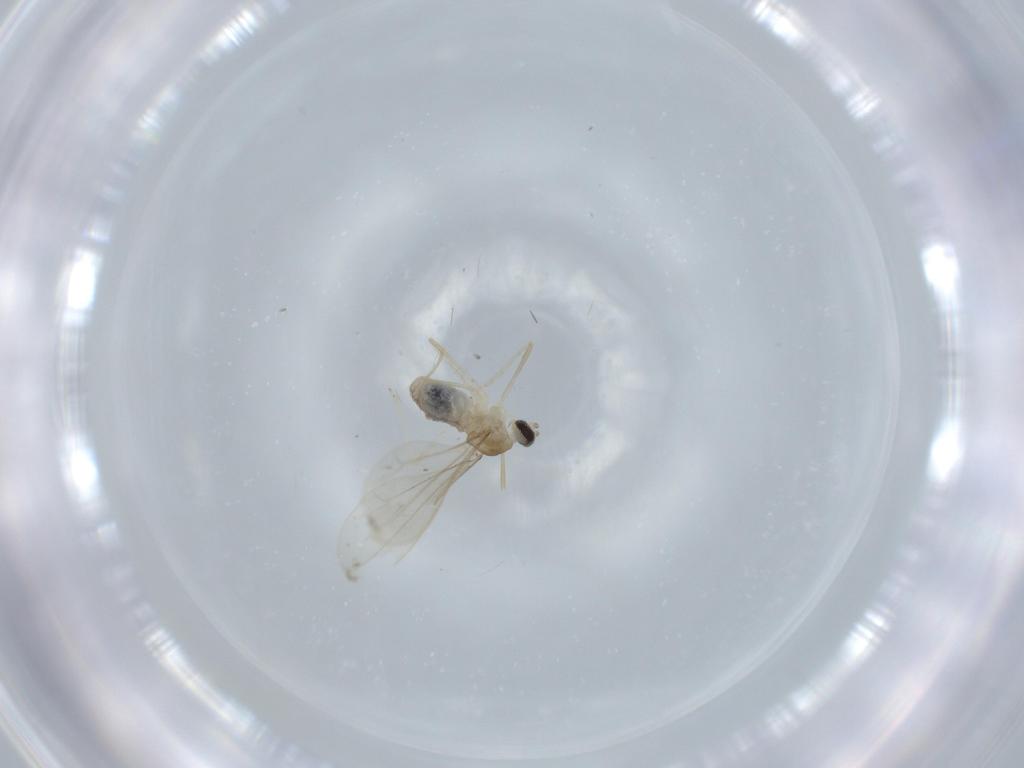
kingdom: Animalia
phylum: Arthropoda
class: Insecta
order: Diptera
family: Cecidomyiidae
